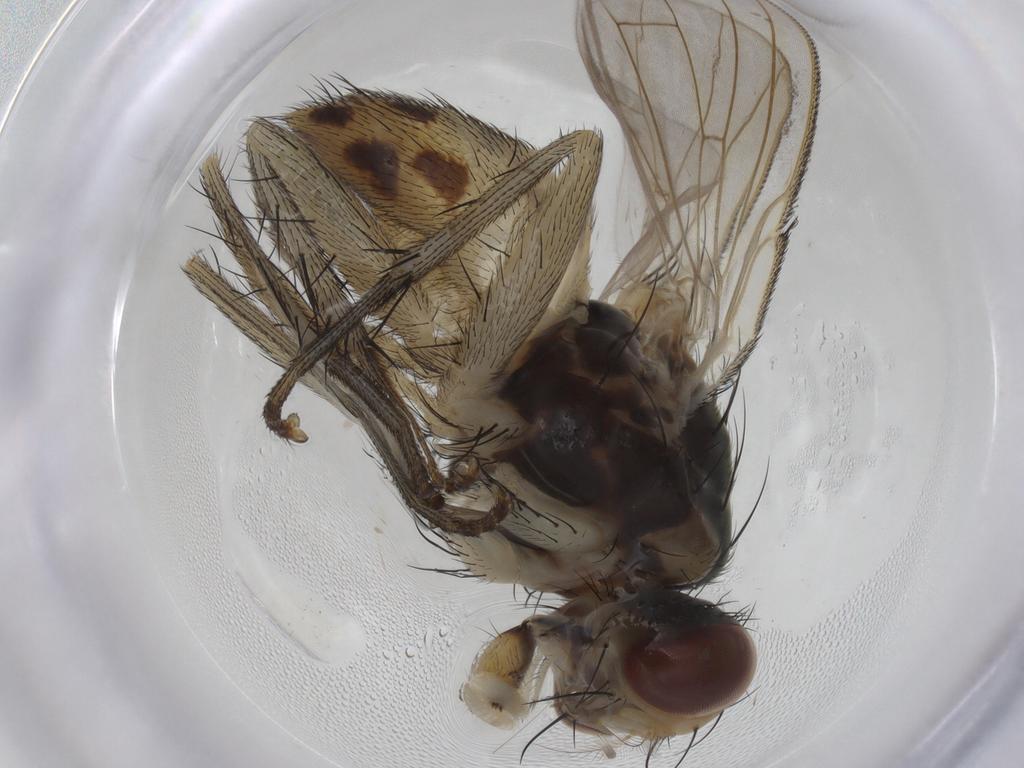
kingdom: Animalia
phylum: Arthropoda
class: Insecta
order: Diptera
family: Muscidae
